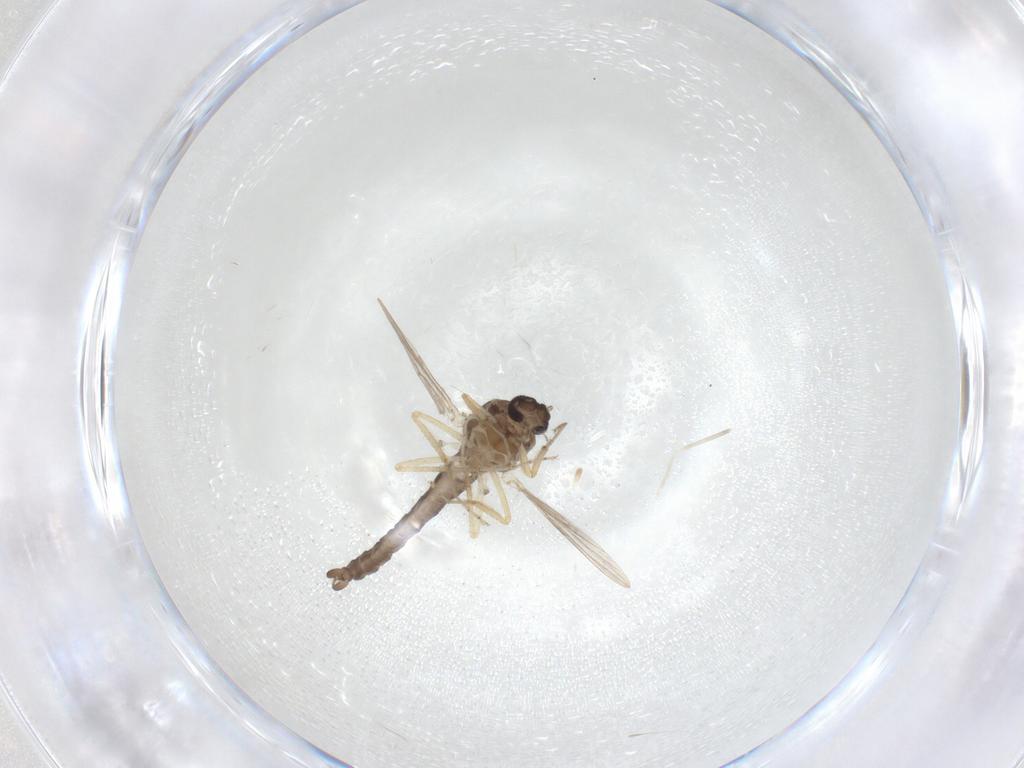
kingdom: Animalia
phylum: Arthropoda
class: Insecta
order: Diptera
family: Ceratopogonidae
